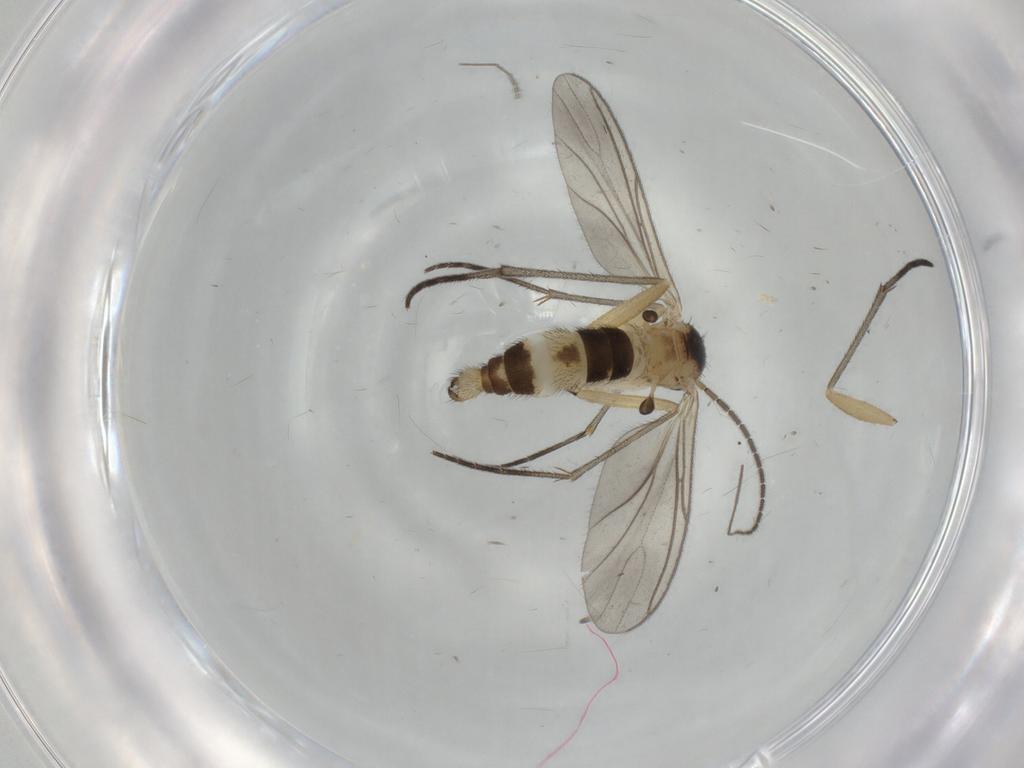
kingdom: Animalia
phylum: Arthropoda
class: Insecta
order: Diptera
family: Sciaridae
